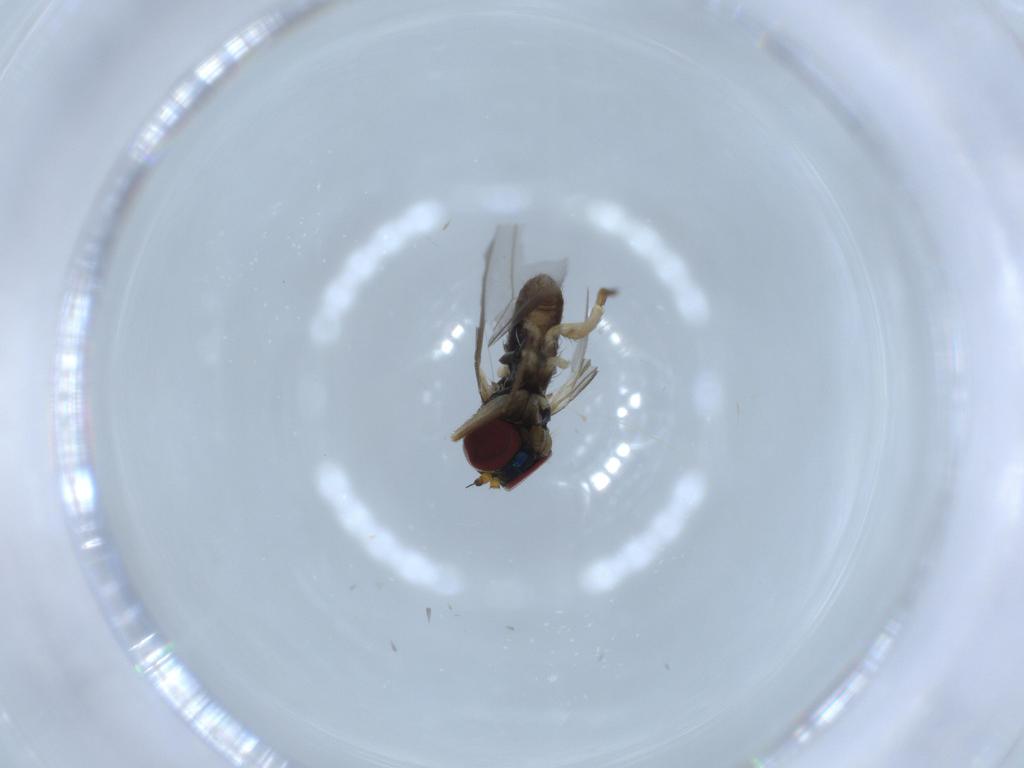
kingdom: Animalia
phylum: Arthropoda
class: Insecta
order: Diptera
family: Dolichopodidae
